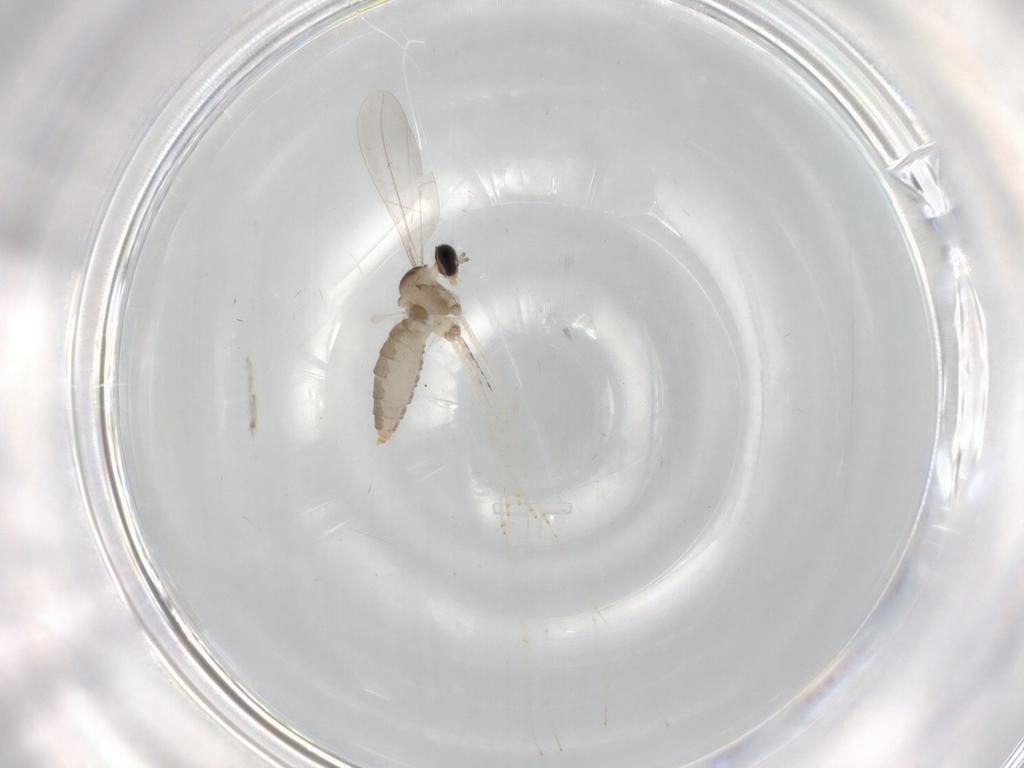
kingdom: Animalia
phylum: Arthropoda
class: Insecta
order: Diptera
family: Cecidomyiidae
